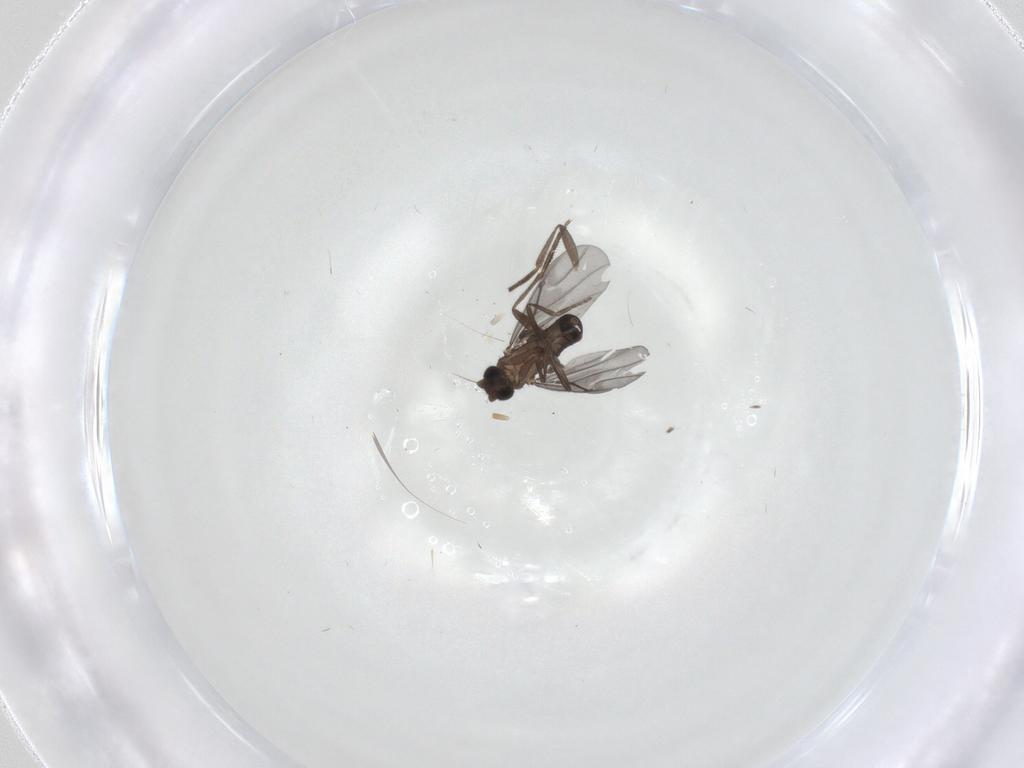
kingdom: Animalia
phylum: Arthropoda
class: Insecta
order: Diptera
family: Chironomidae
